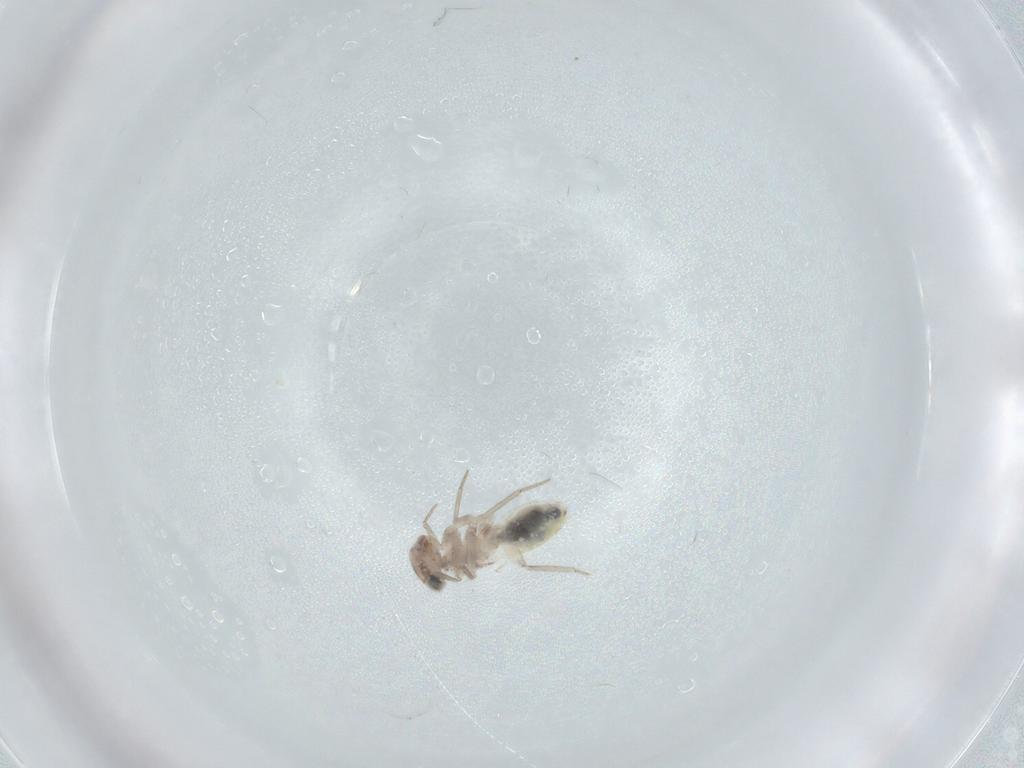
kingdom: Animalia
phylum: Arthropoda
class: Insecta
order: Psocodea
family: Lepidopsocidae
